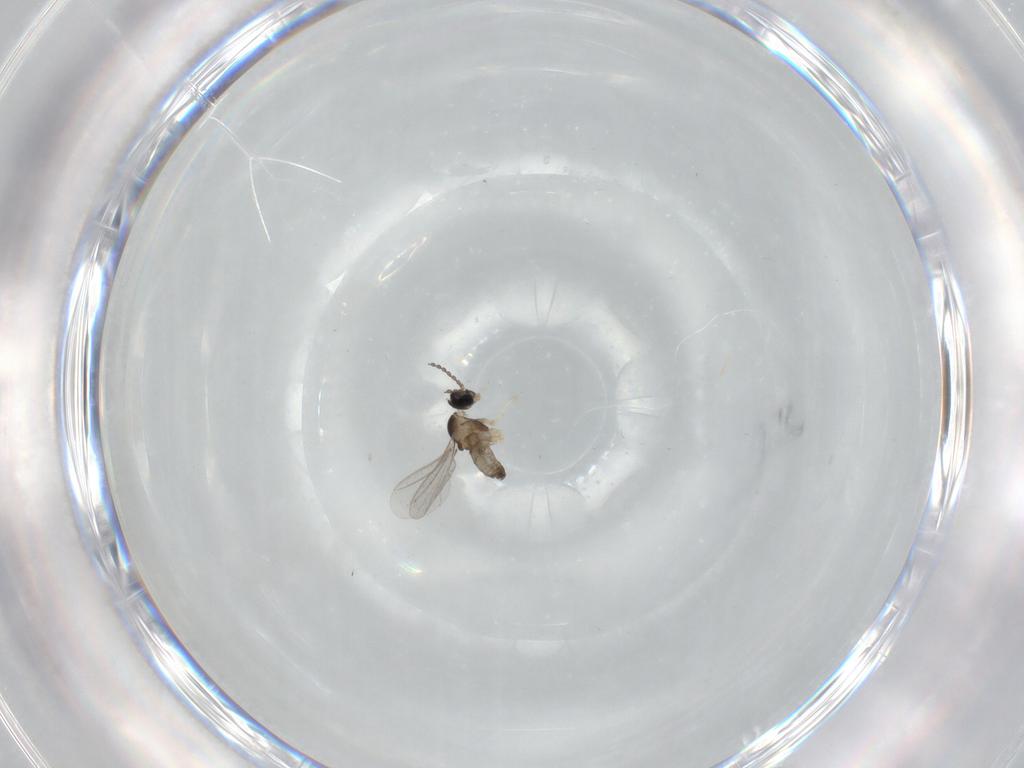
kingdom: Animalia
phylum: Arthropoda
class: Insecta
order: Diptera
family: Cecidomyiidae
